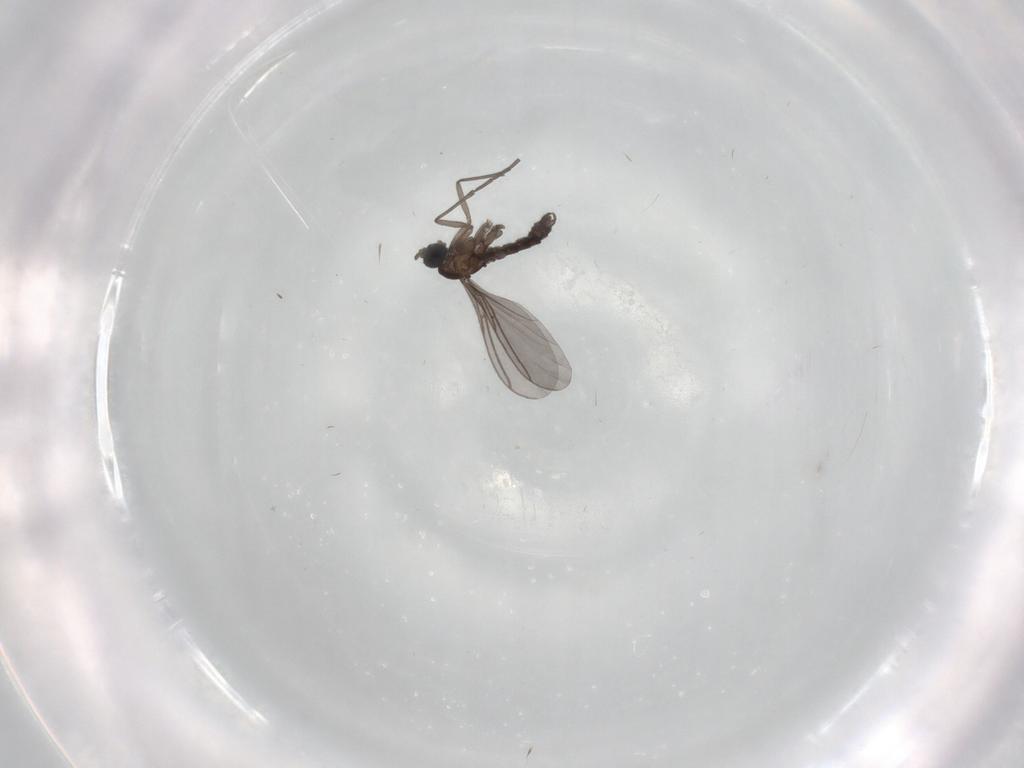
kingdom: Animalia
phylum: Arthropoda
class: Insecta
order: Diptera
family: Sciaridae
